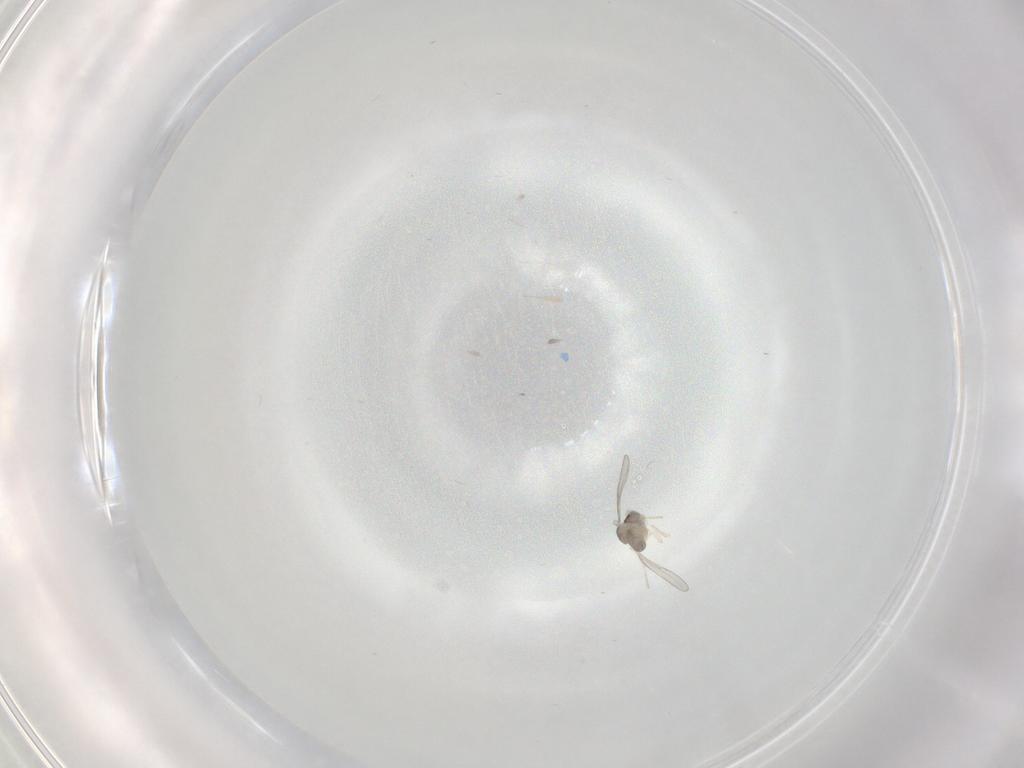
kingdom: Animalia
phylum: Arthropoda
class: Insecta
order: Diptera
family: Cecidomyiidae
